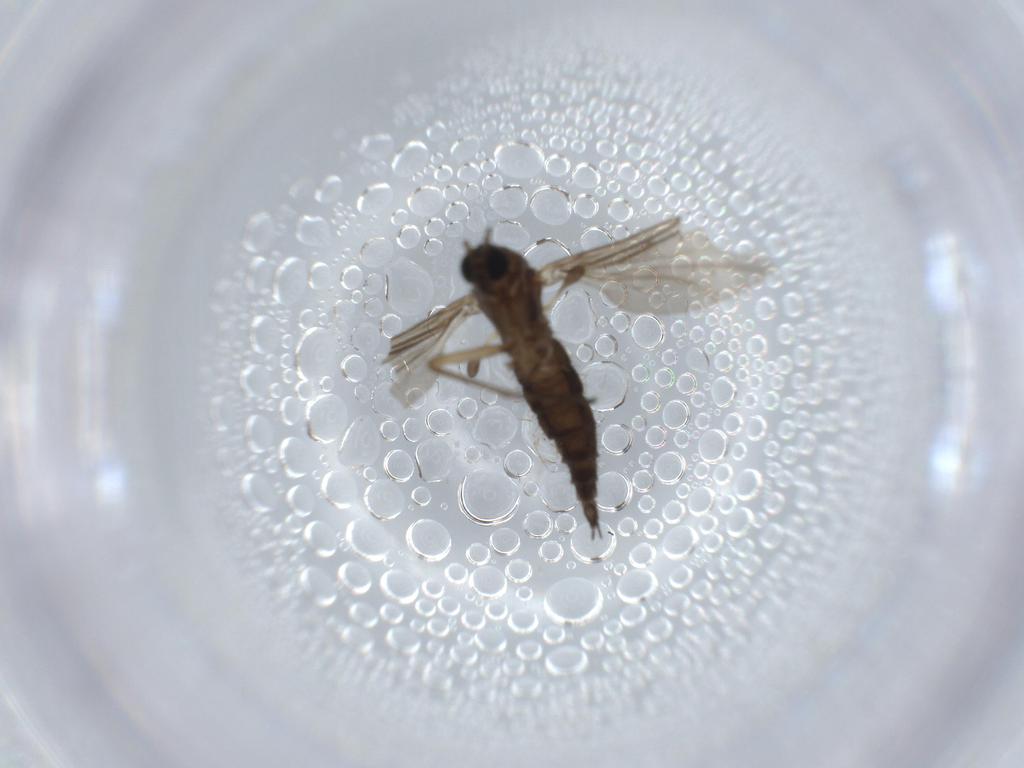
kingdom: Animalia
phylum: Arthropoda
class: Insecta
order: Diptera
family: Sciaridae
